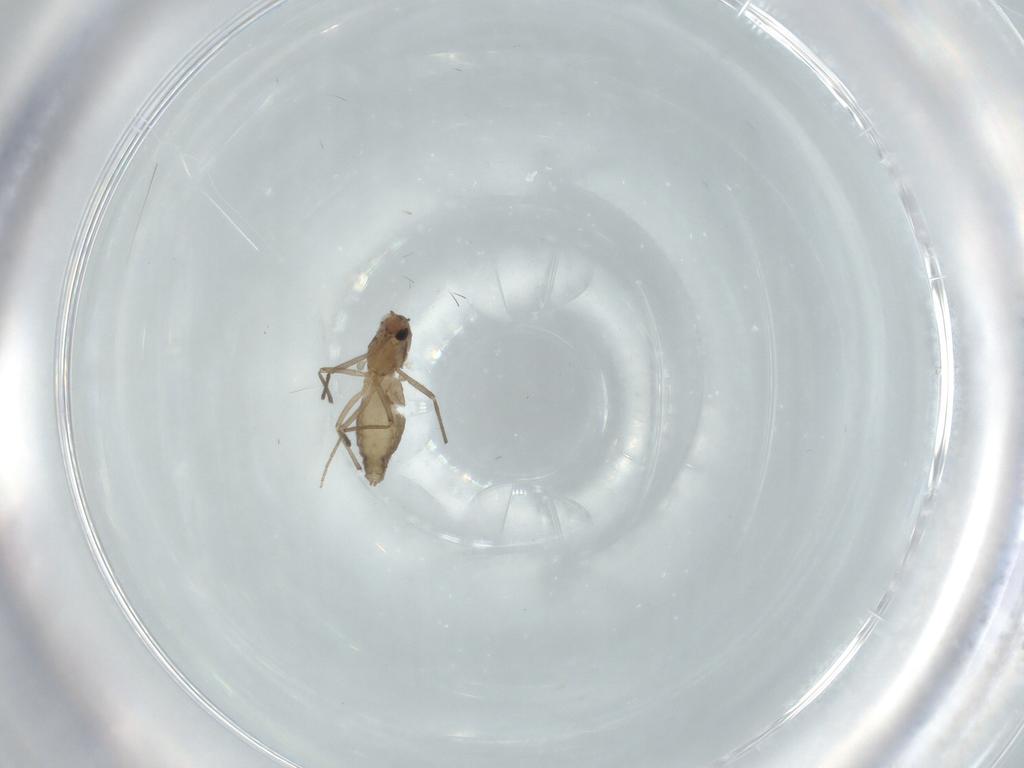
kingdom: Animalia
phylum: Arthropoda
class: Insecta
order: Diptera
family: Chironomidae
